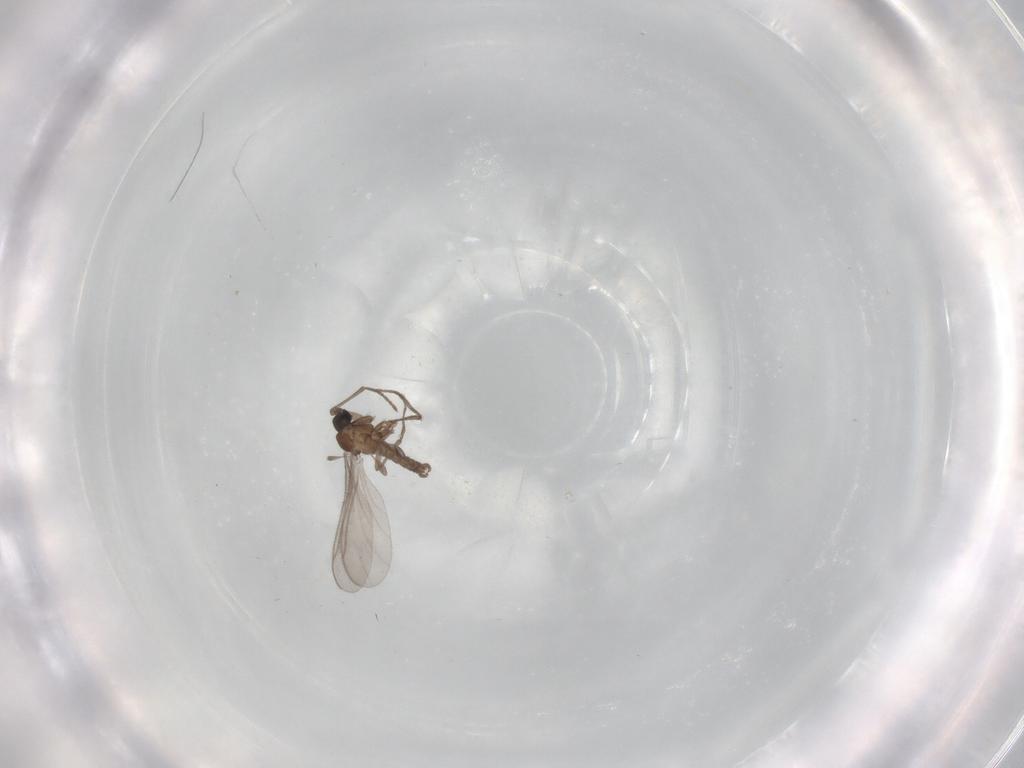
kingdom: Animalia
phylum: Arthropoda
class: Insecta
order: Diptera
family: Sciaridae
